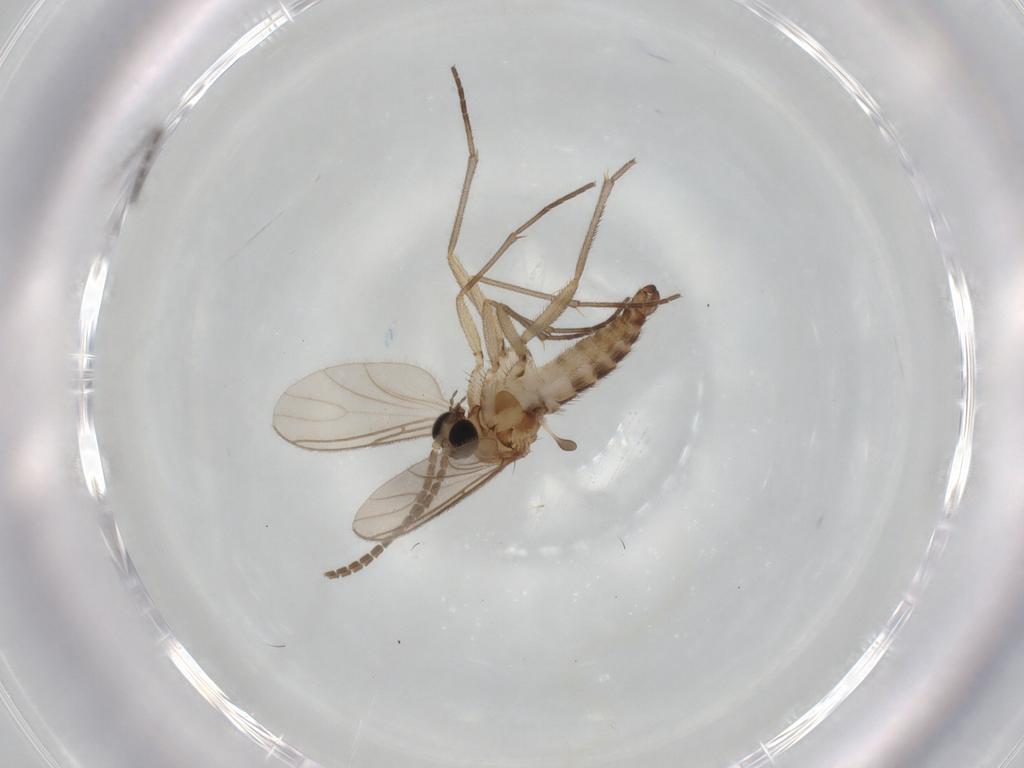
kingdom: Animalia
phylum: Arthropoda
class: Insecta
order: Diptera
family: Sciaridae
